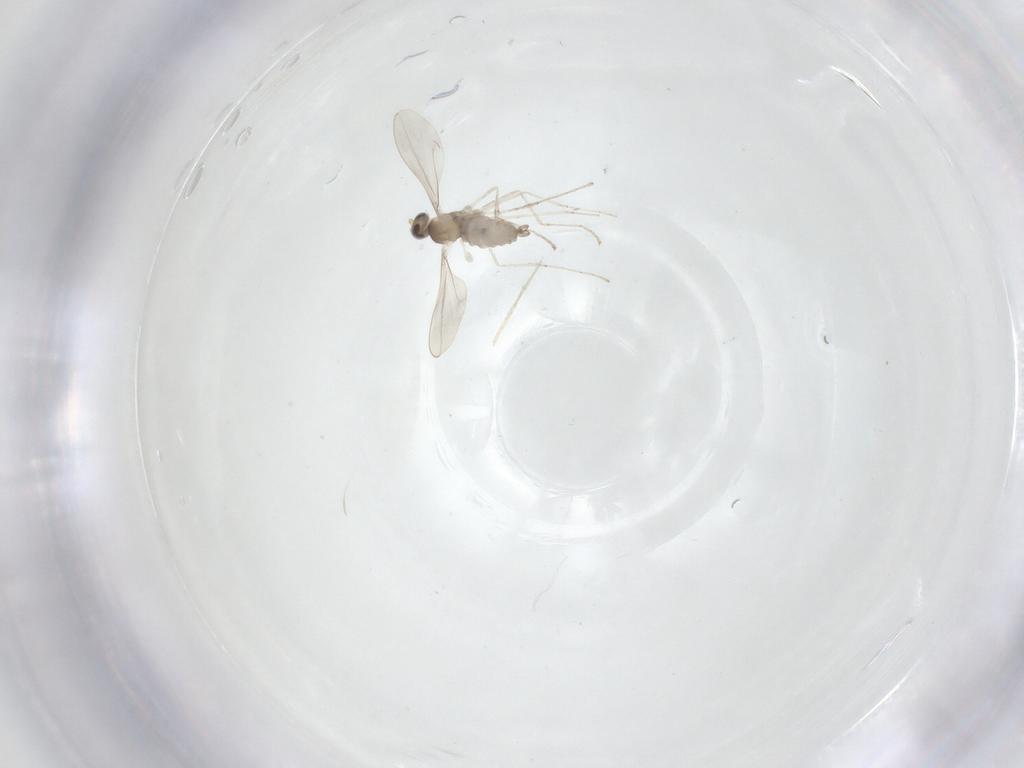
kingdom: Animalia
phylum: Arthropoda
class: Insecta
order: Diptera
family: Cecidomyiidae
